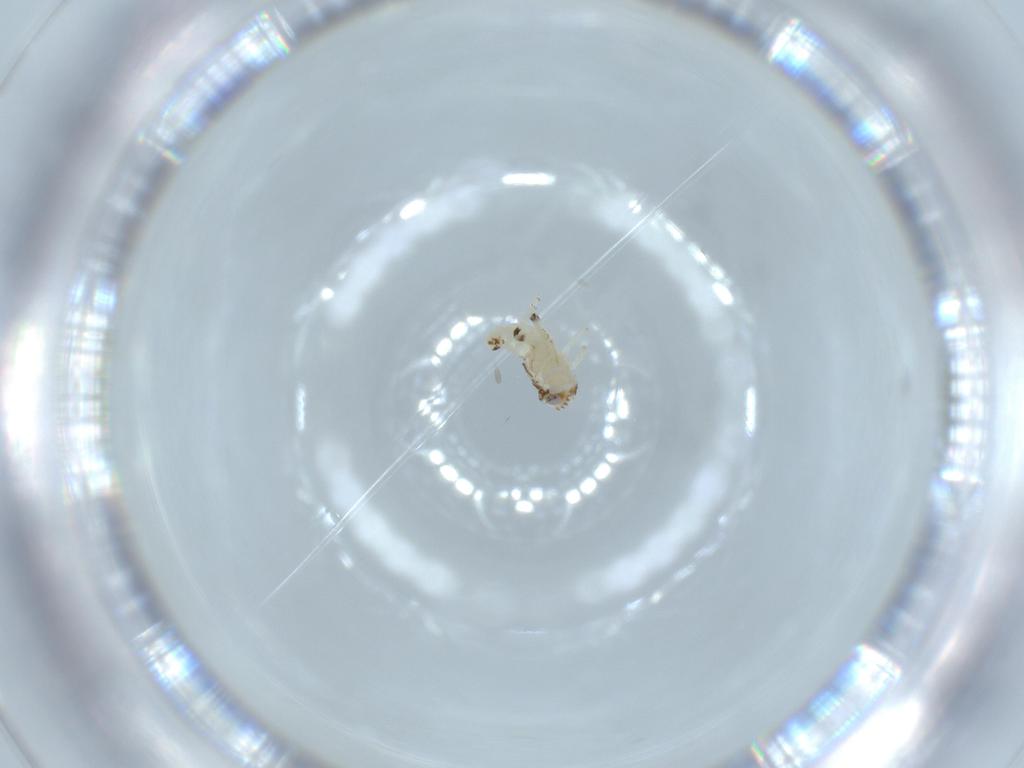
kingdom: Animalia
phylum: Arthropoda
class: Insecta
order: Hemiptera
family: Nogodinidae
